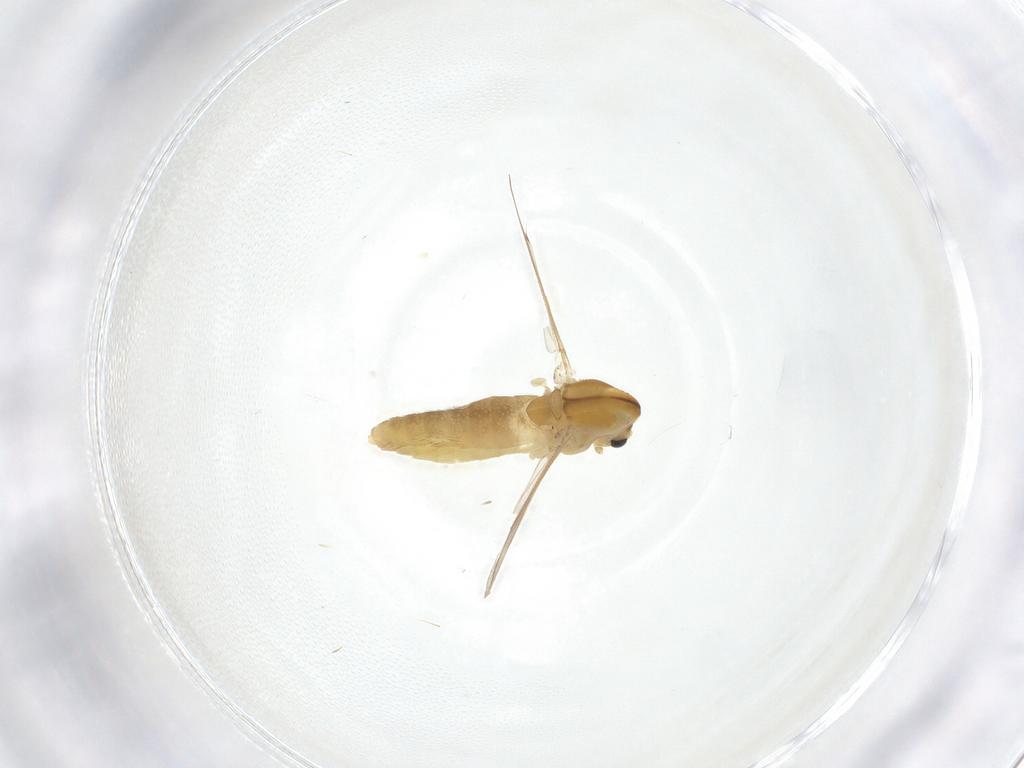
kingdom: Animalia
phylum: Arthropoda
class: Insecta
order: Diptera
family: Chironomidae
